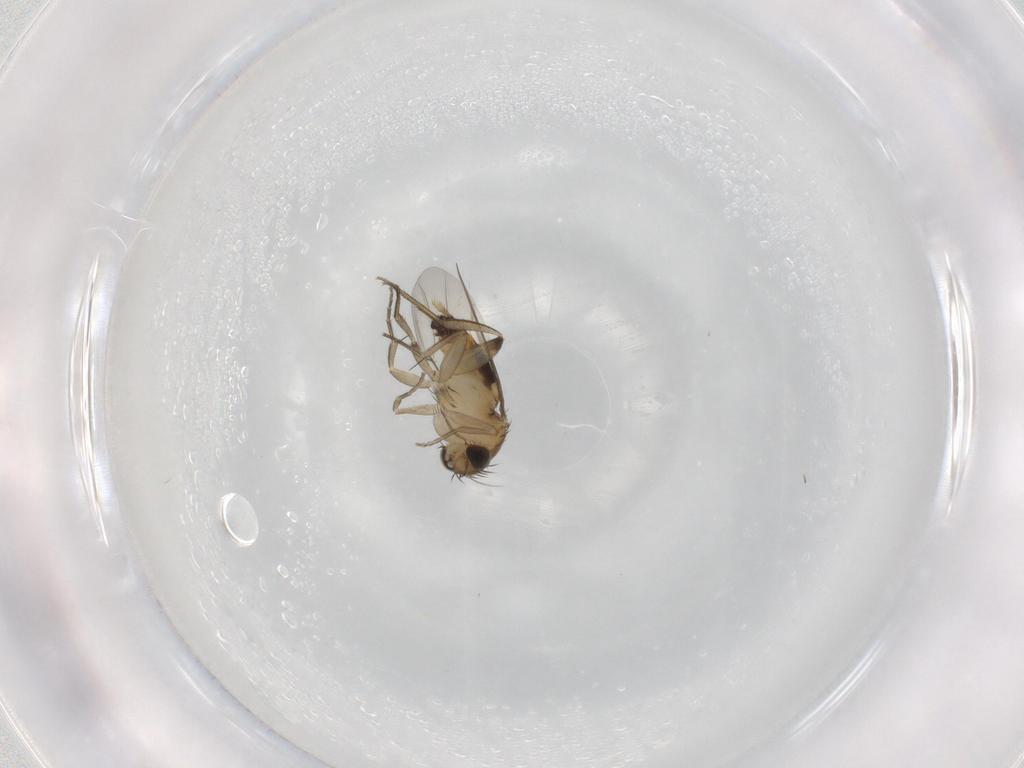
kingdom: Animalia
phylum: Arthropoda
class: Insecta
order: Diptera
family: Phoridae
